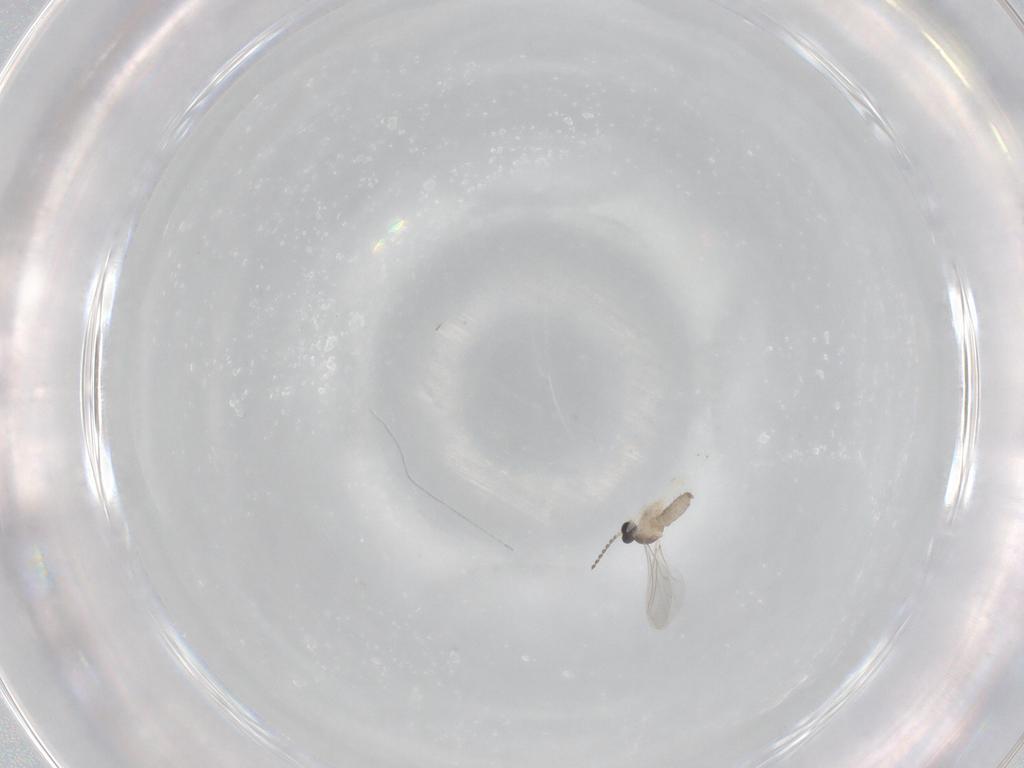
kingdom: Animalia
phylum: Arthropoda
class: Insecta
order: Diptera
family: Cecidomyiidae
